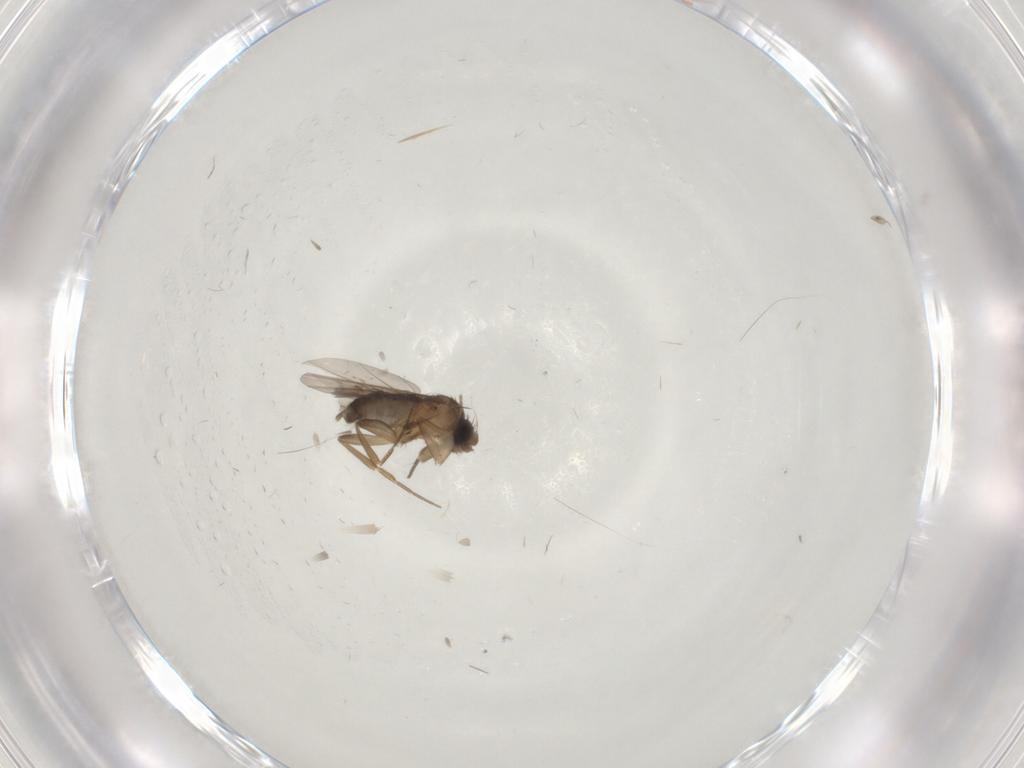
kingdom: Animalia
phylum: Arthropoda
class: Insecta
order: Diptera
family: Phoridae
